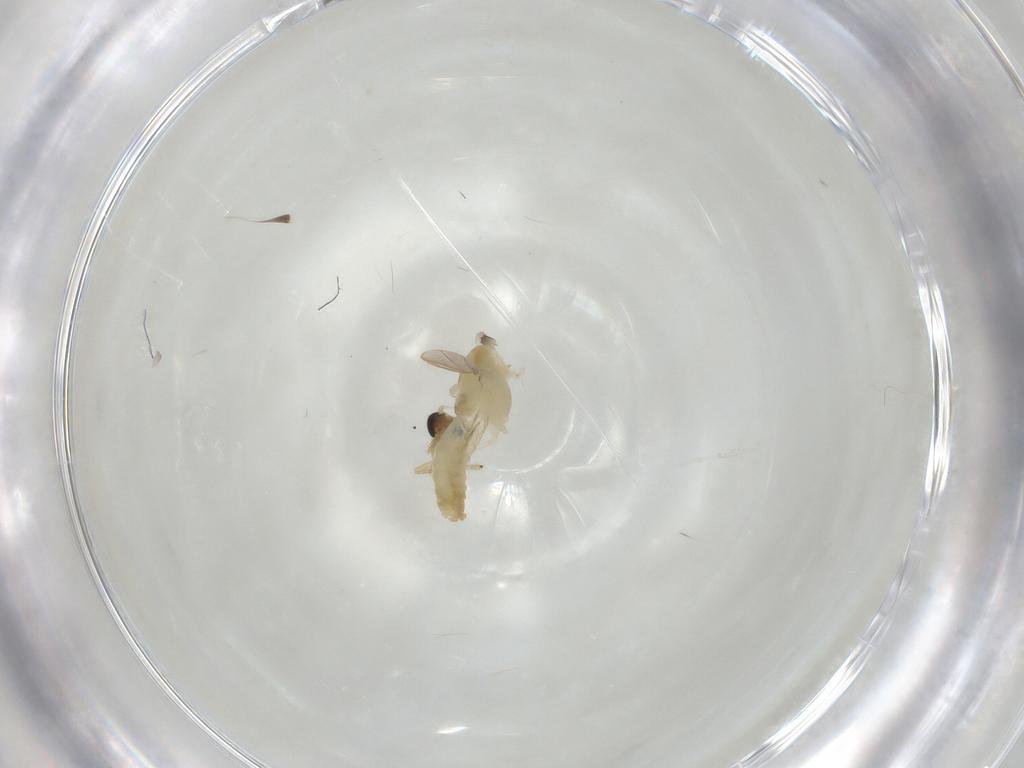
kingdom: Animalia
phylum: Arthropoda
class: Insecta
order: Diptera
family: Chironomidae
